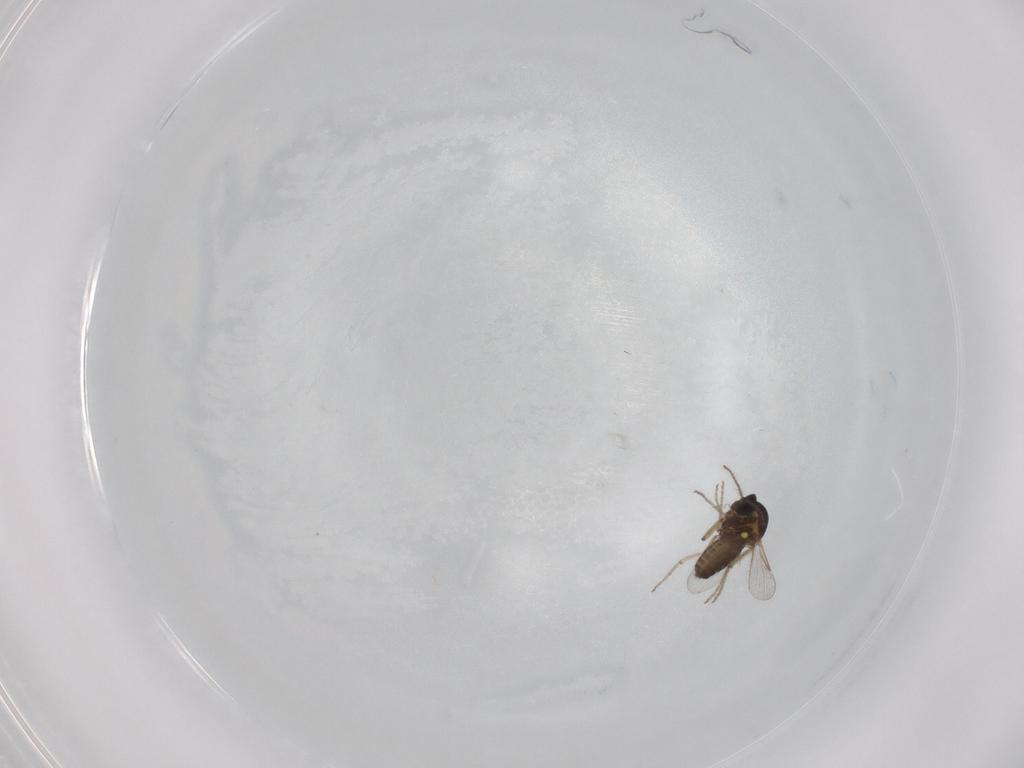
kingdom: Animalia
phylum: Arthropoda
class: Insecta
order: Diptera
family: Ceratopogonidae
